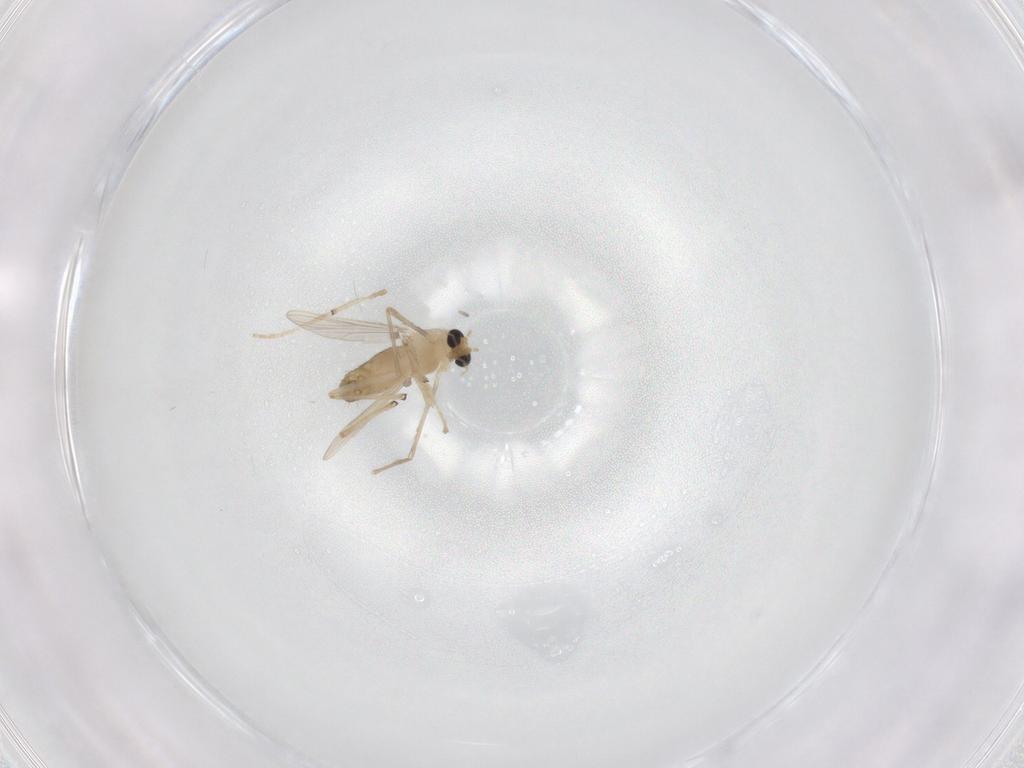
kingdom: Animalia
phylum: Arthropoda
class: Insecta
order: Diptera
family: Chironomidae
